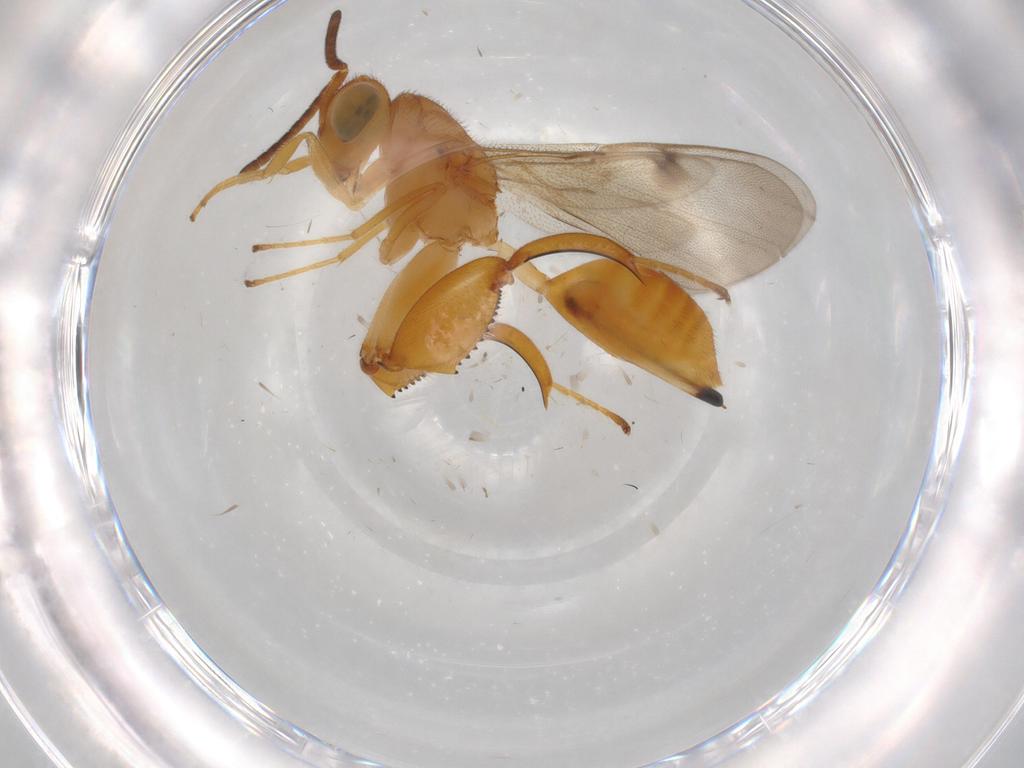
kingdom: Animalia
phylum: Arthropoda
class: Insecta
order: Hymenoptera
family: Chalcididae
